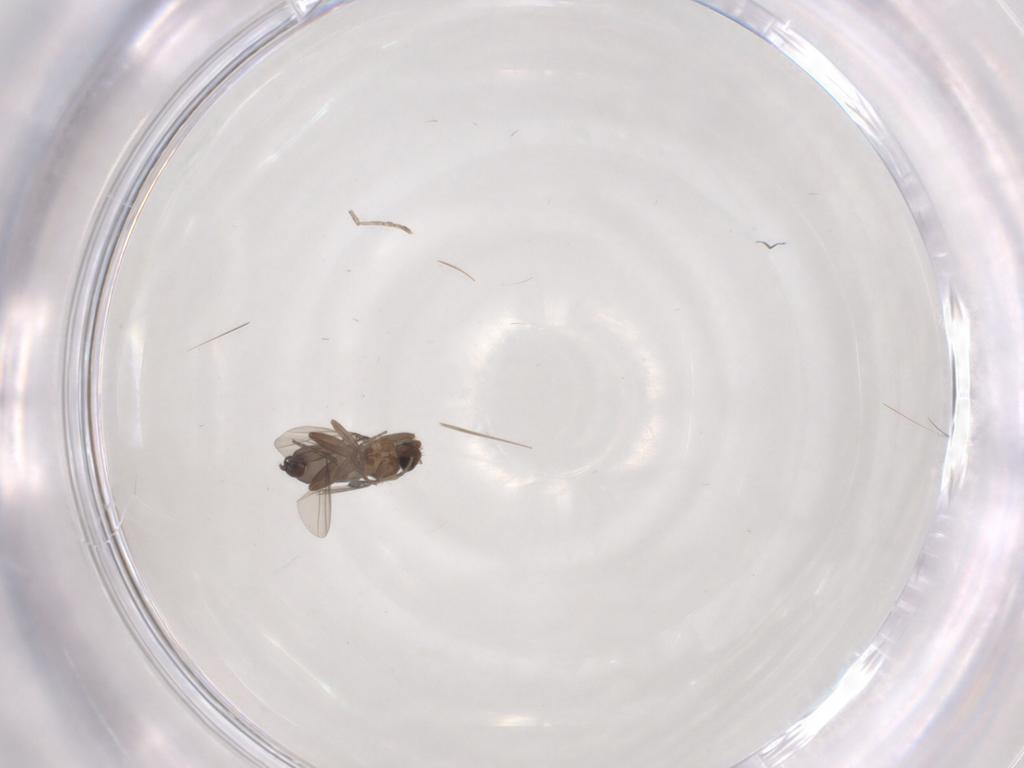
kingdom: Animalia
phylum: Arthropoda
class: Insecta
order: Diptera
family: Phoridae
